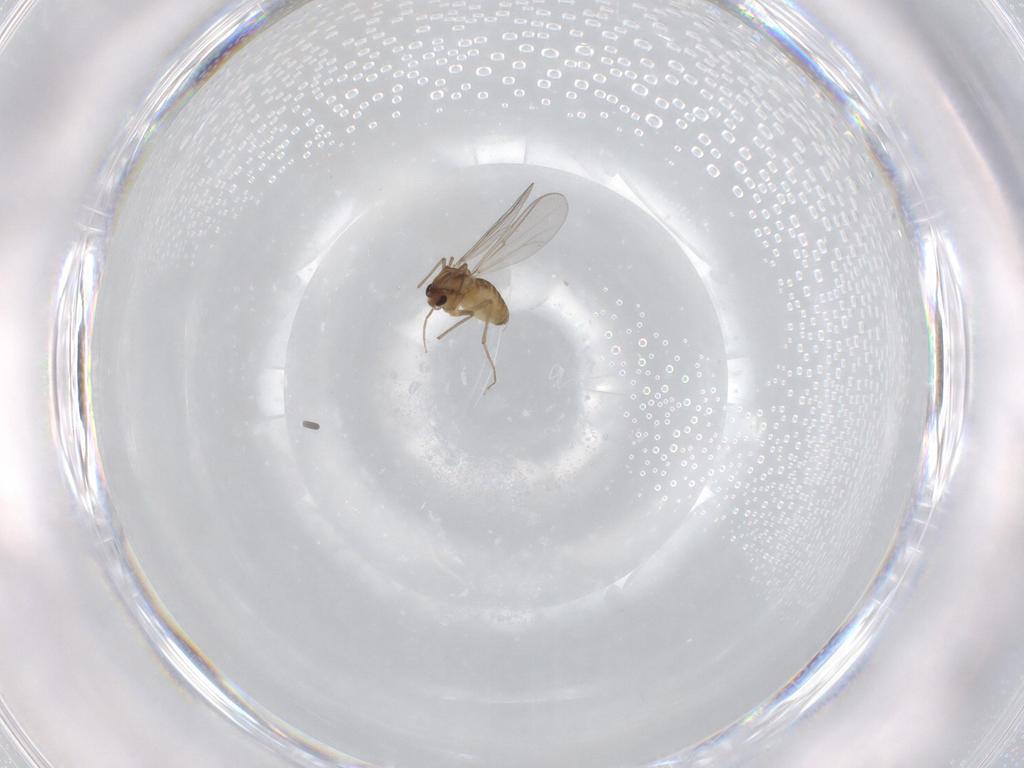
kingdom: Animalia
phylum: Arthropoda
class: Insecta
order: Diptera
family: Chironomidae
